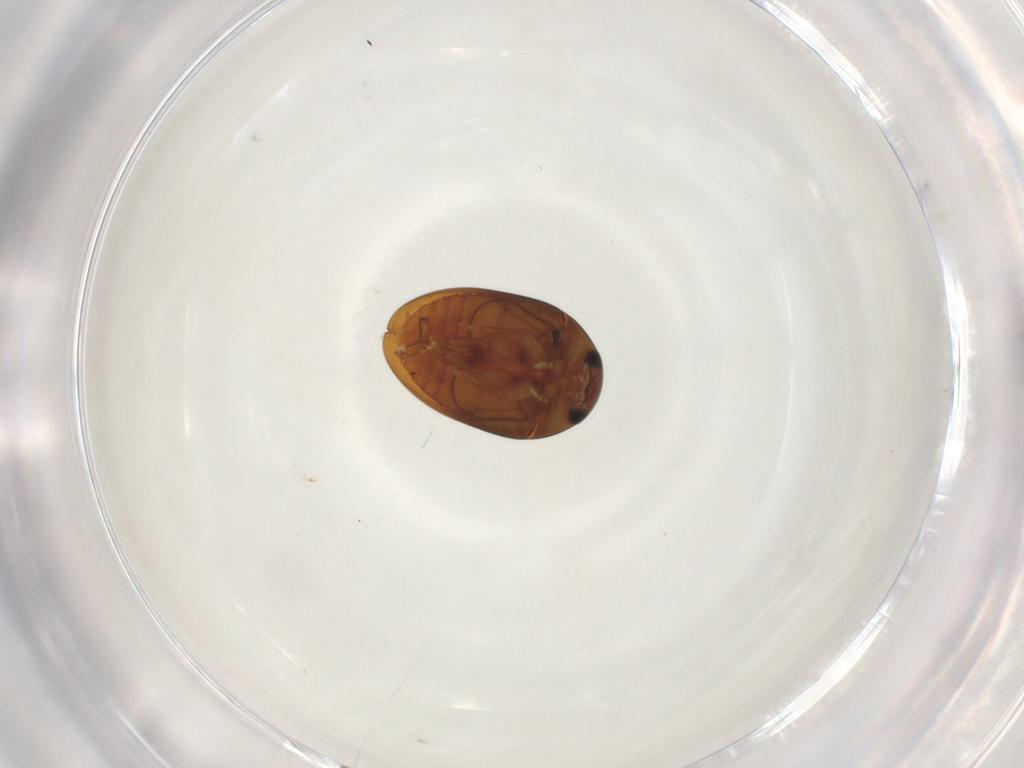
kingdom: Animalia
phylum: Arthropoda
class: Insecta
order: Coleoptera
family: Phalacridae
